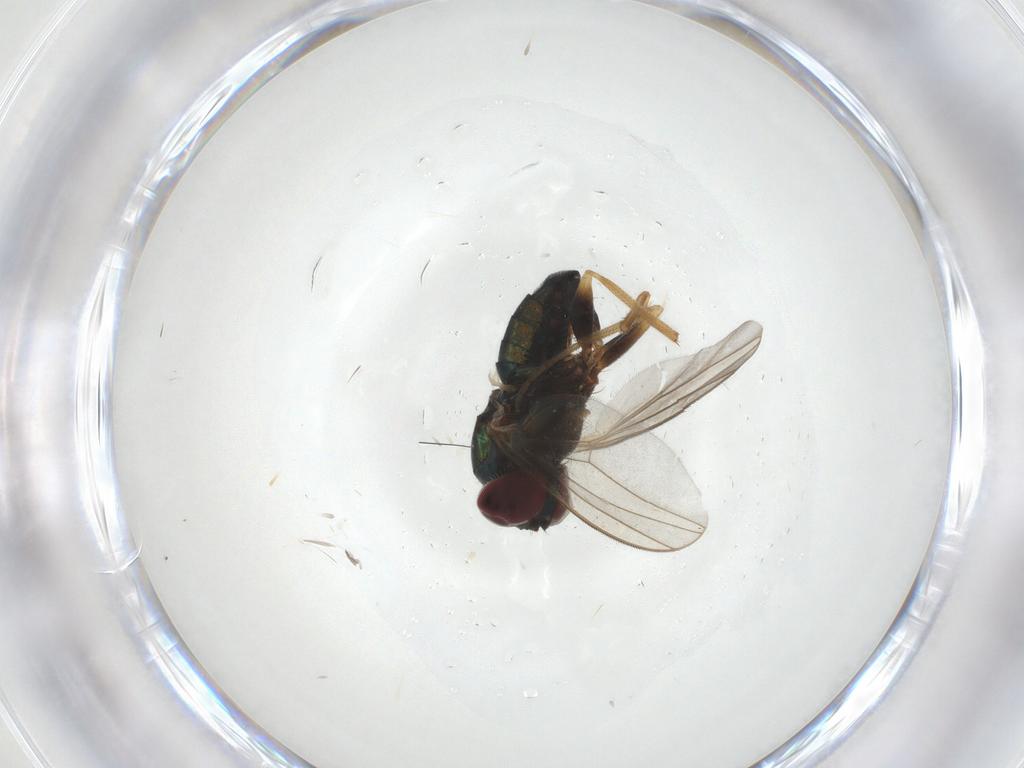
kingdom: Animalia
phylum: Arthropoda
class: Insecta
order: Diptera
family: Dolichopodidae
